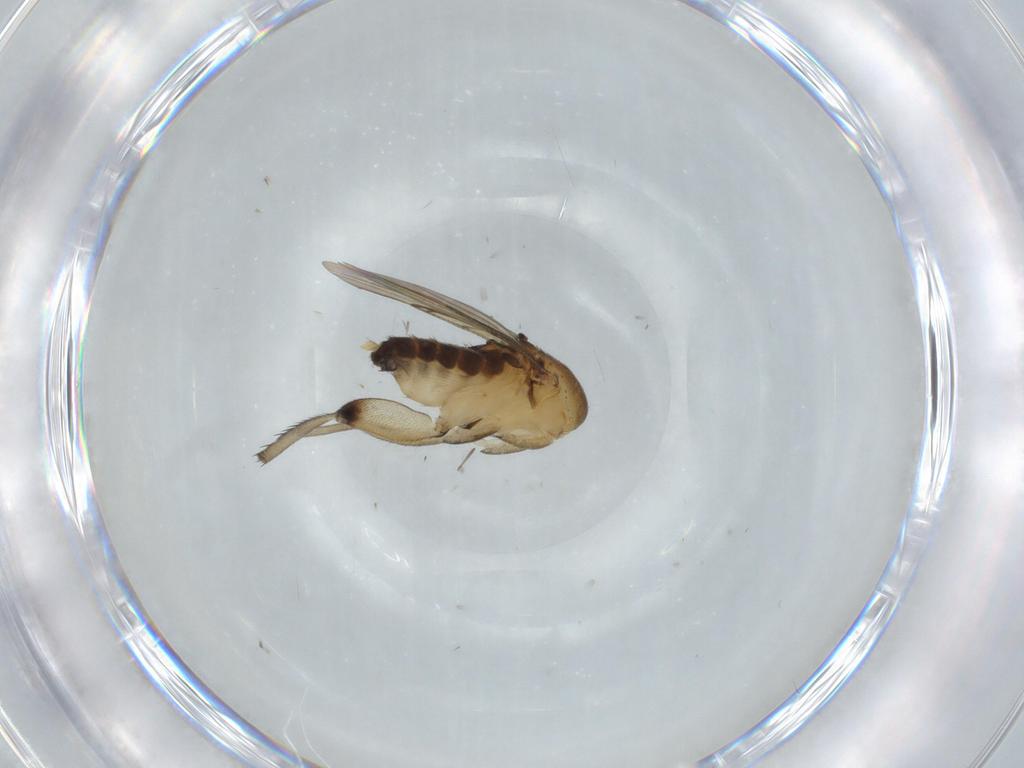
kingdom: Animalia
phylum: Arthropoda
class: Insecta
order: Diptera
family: Phoridae
